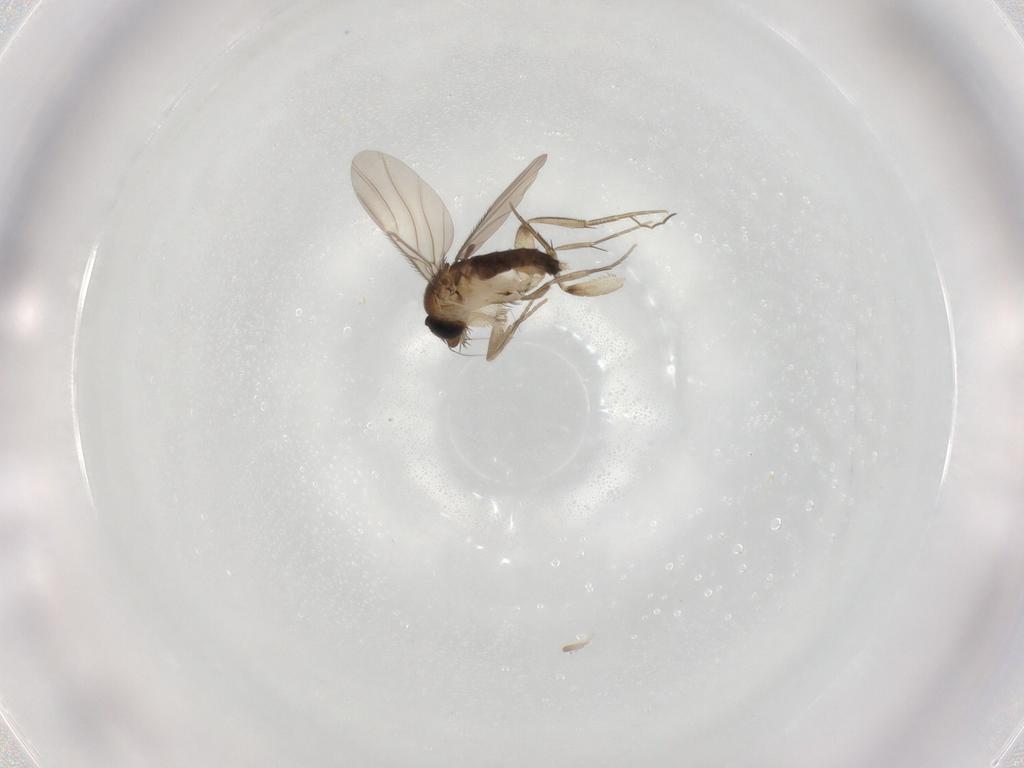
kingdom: Animalia
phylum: Arthropoda
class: Insecta
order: Diptera
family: Phoridae
